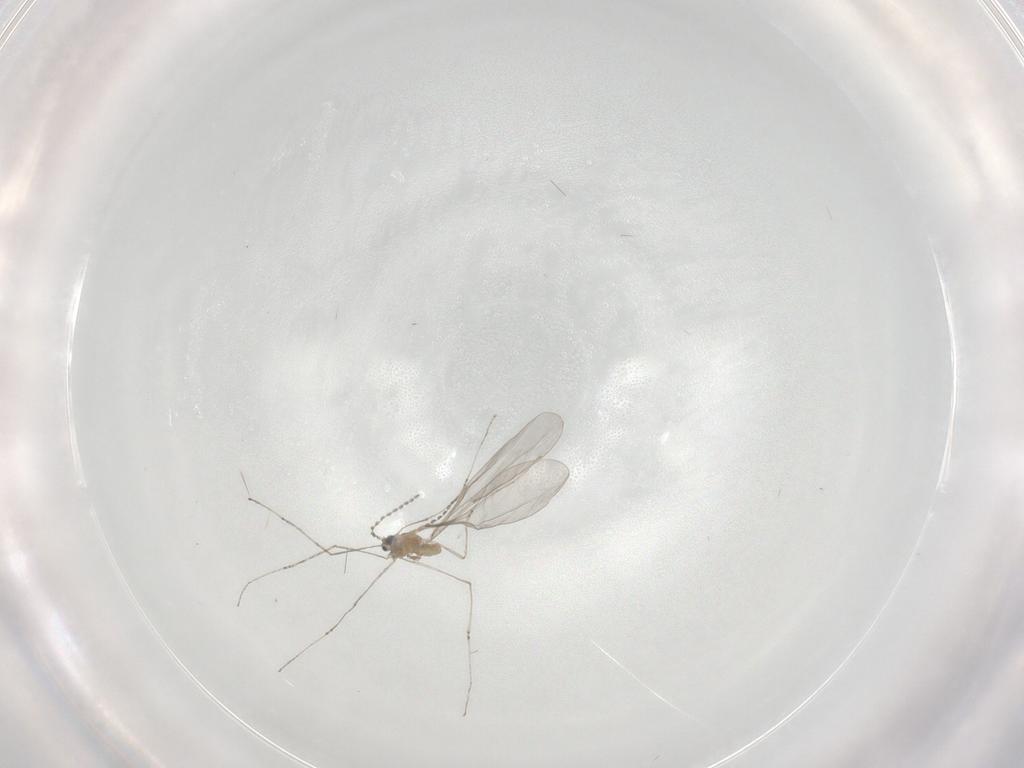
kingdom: Animalia
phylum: Arthropoda
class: Insecta
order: Diptera
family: Cecidomyiidae
